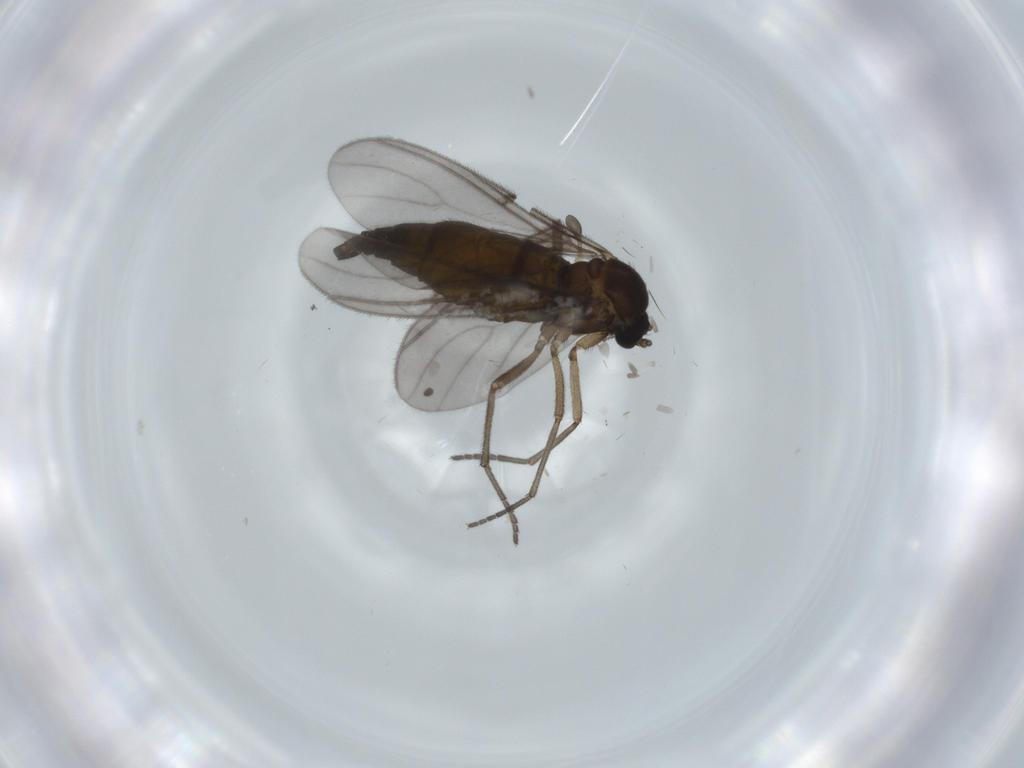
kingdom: Animalia
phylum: Arthropoda
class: Insecta
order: Diptera
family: Sciaridae
